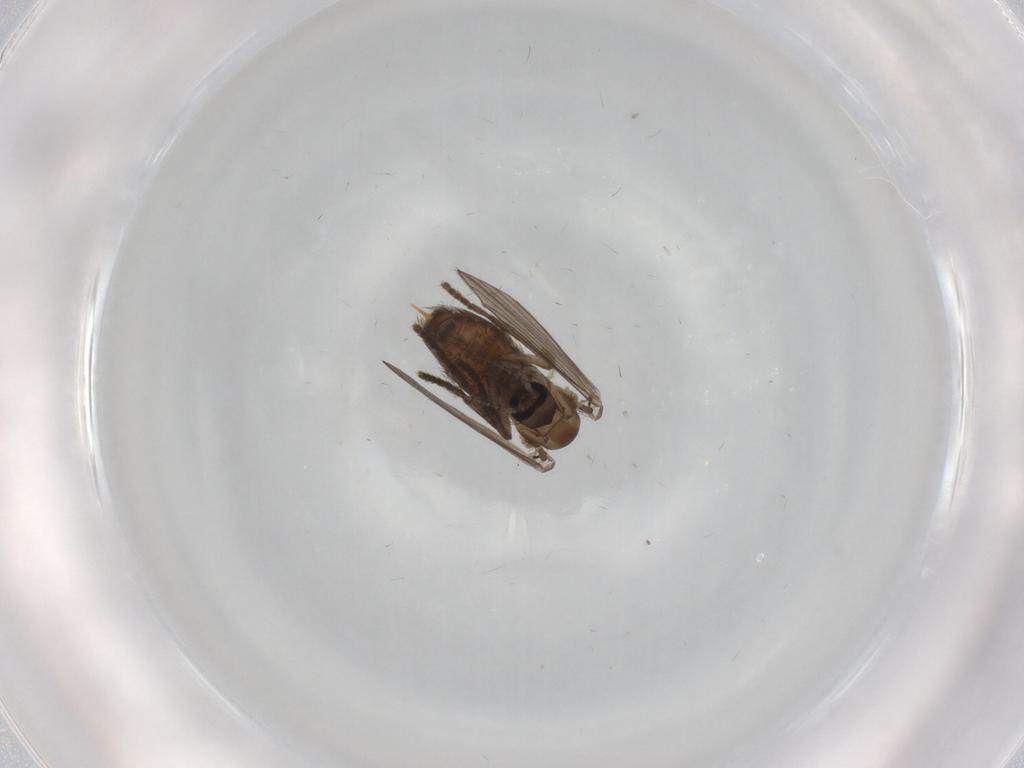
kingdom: Animalia
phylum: Arthropoda
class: Insecta
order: Diptera
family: Psychodidae
